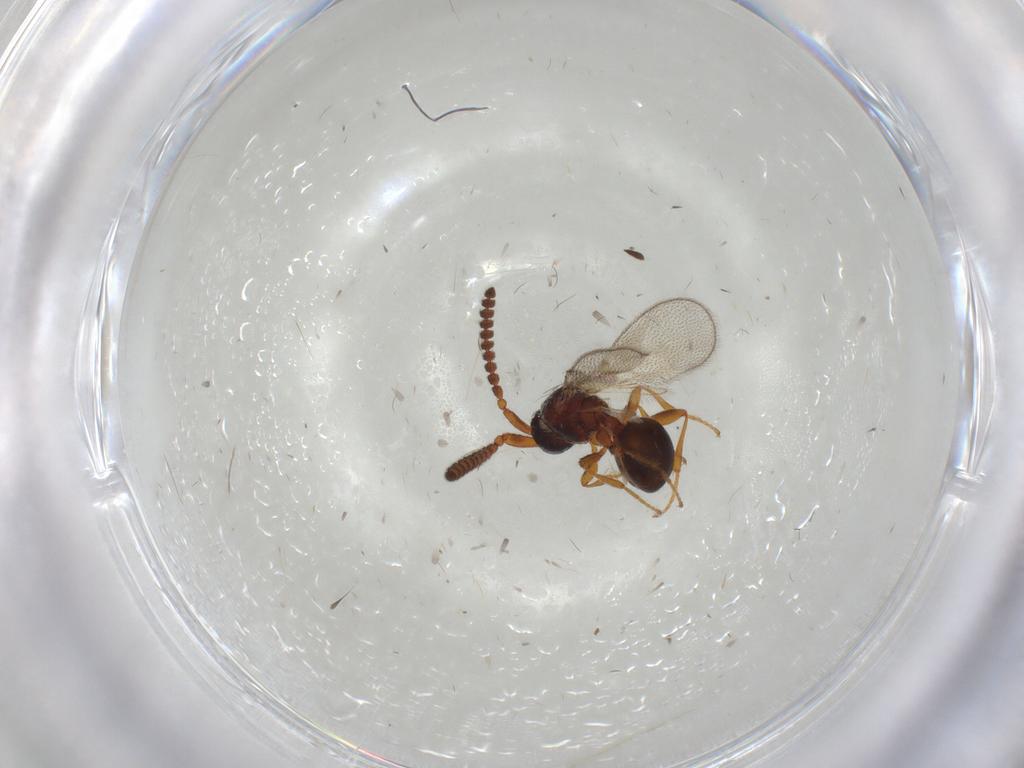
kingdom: Animalia
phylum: Arthropoda
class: Insecta
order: Hymenoptera
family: Diapriidae
